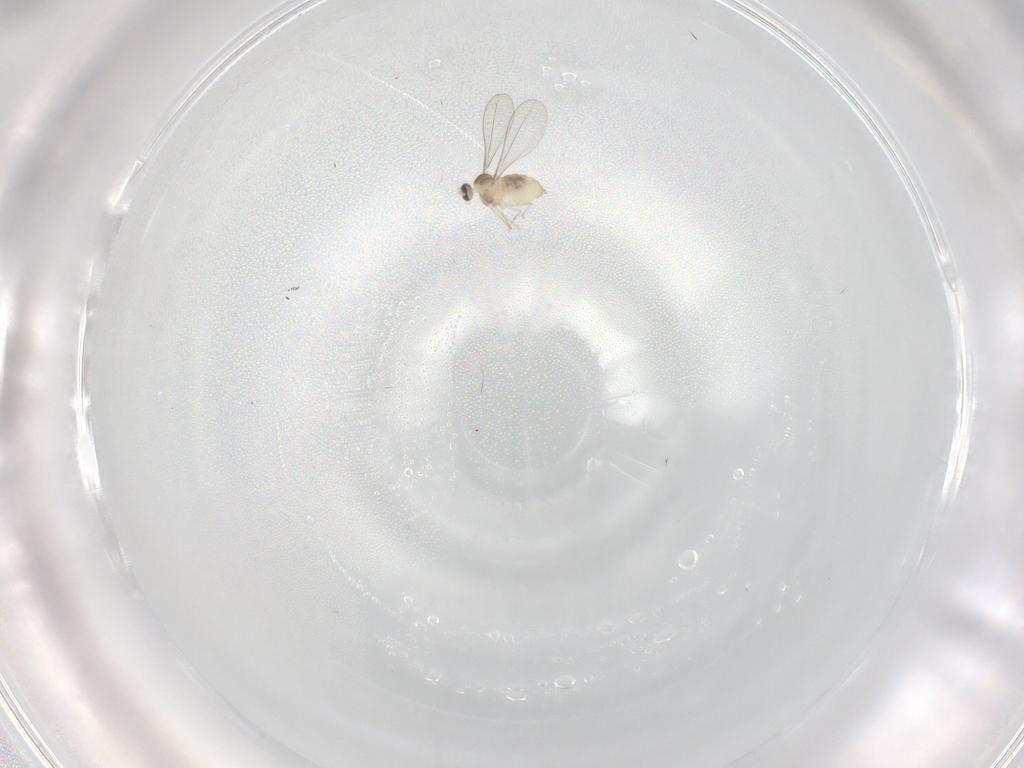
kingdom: Animalia
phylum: Arthropoda
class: Insecta
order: Diptera
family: Cecidomyiidae
